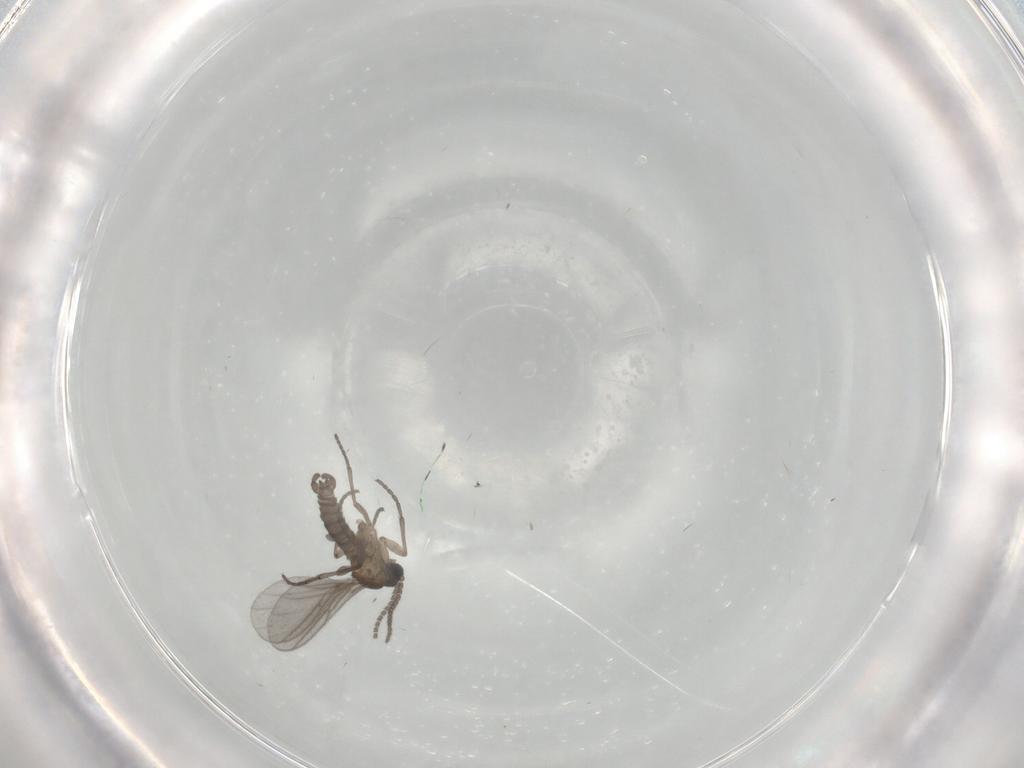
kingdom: Animalia
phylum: Arthropoda
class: Insecta
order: Diptera
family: Sciaridae
